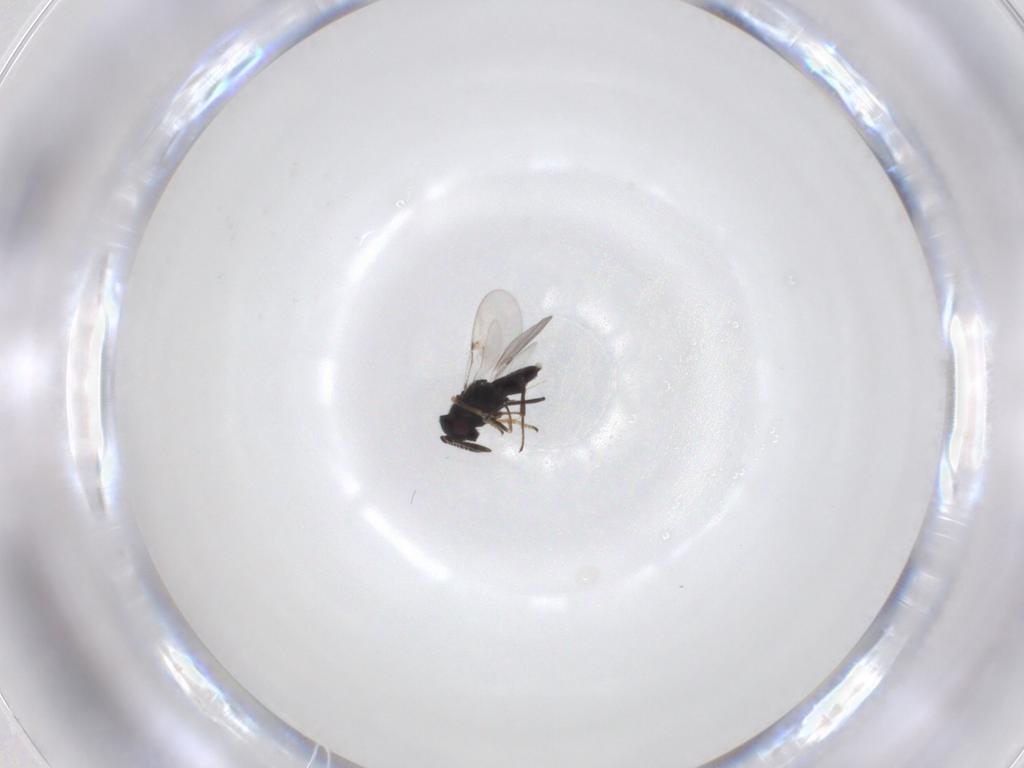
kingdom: Animalia
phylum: Arthropoda
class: Insecta
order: Hymenoptera
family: Encyrtidae
